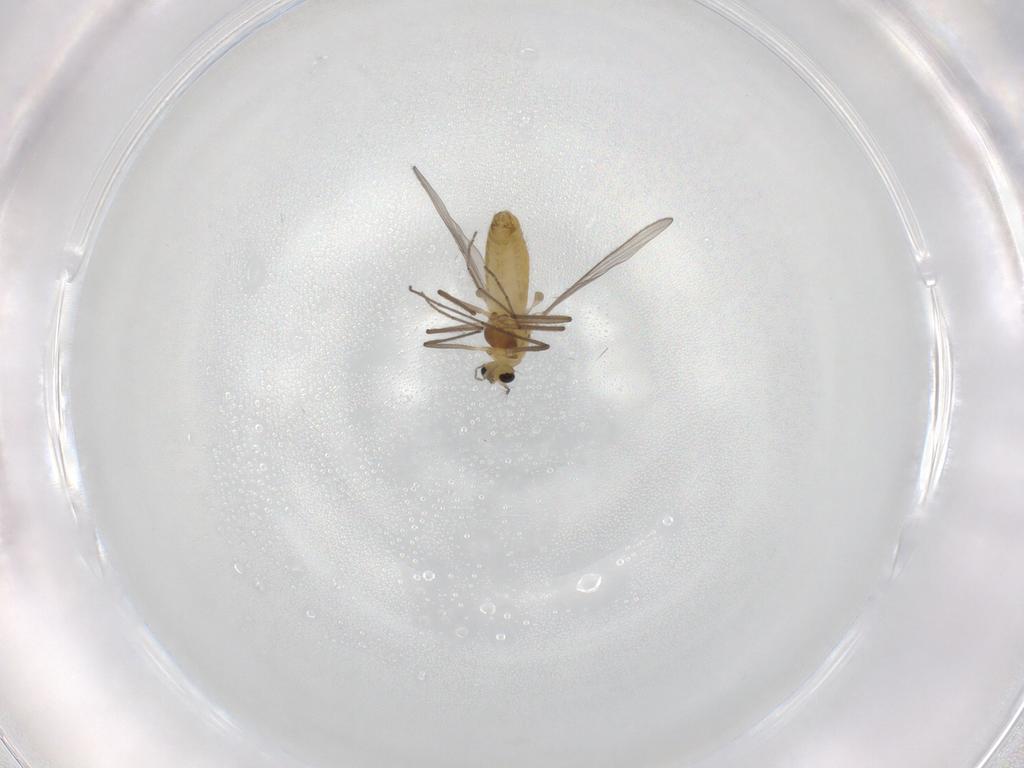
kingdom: Animalia
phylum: Arthropoda
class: Insecta
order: Diptera
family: Chironomidae
